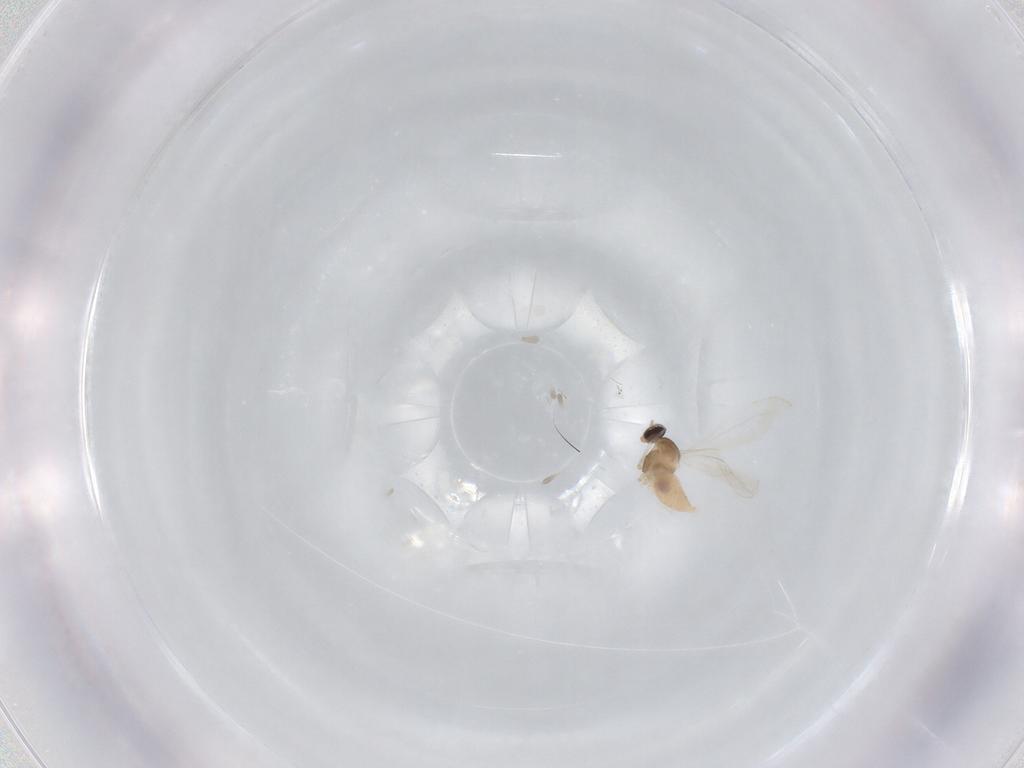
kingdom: Animalia
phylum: Arthropoda
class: Insecta
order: Diptera
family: Cecidomyiidae
